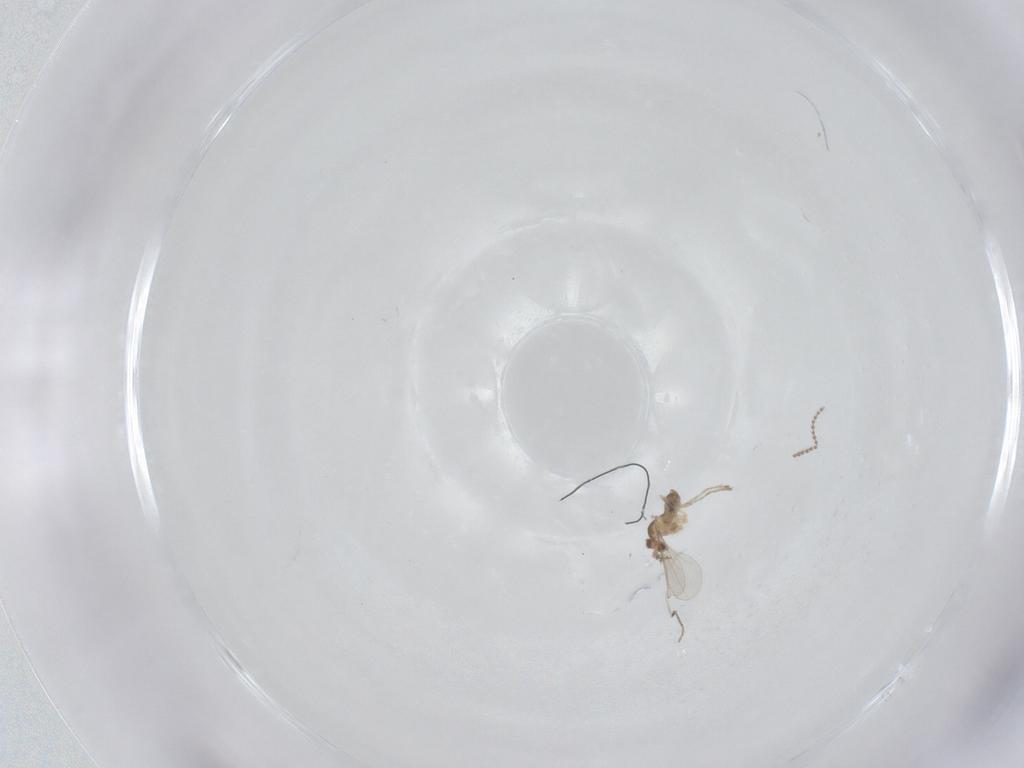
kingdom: Animalia
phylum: Arthropoda
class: Insecta
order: Diptera
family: Cecidomyiidae
